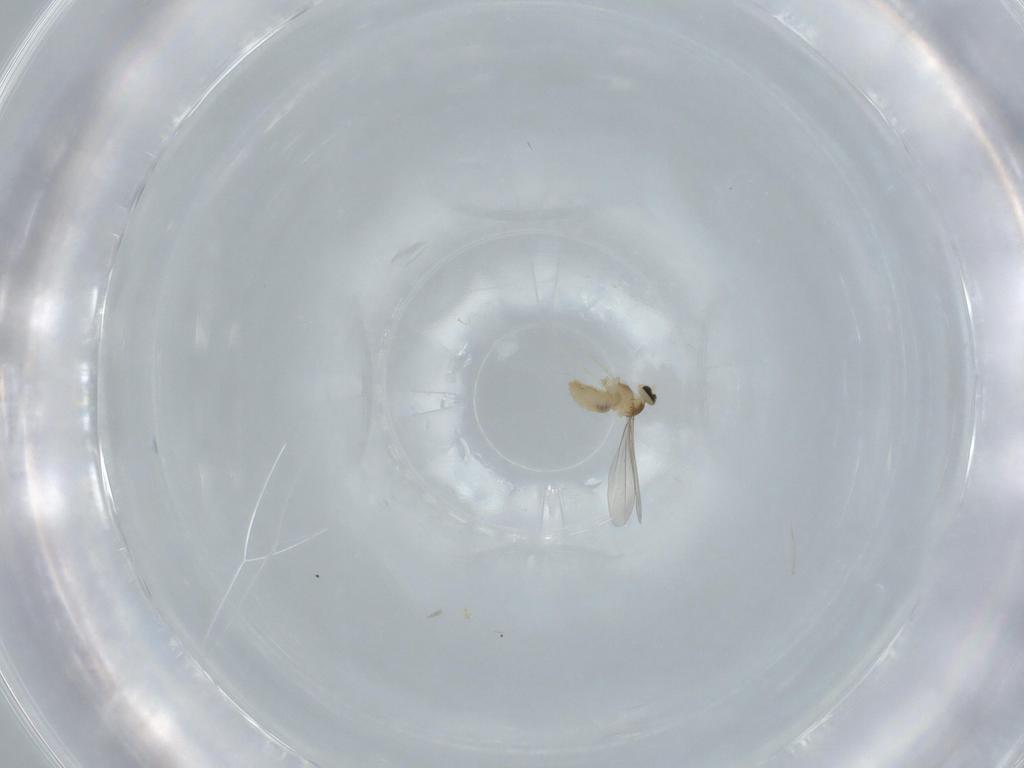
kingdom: Animalia
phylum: Arthropoda
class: Insecta
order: Diptera
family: Cecidomyiidae
